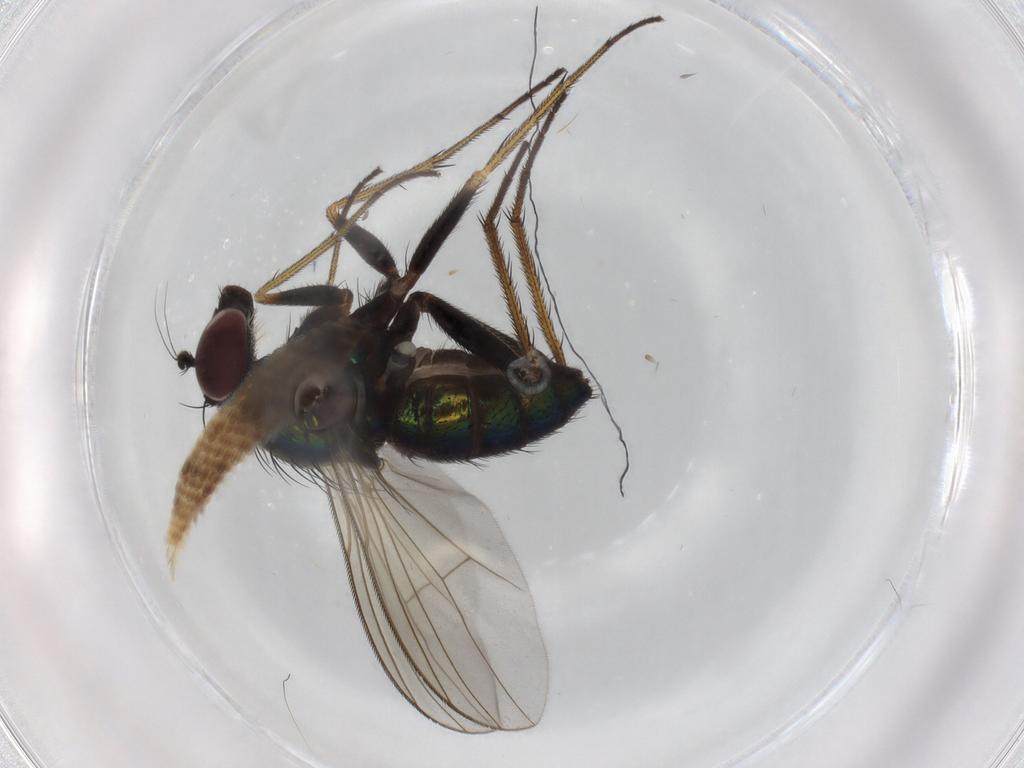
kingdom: Animalia
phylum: Arthropoda
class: Insecta
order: Diptera
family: Dolichopodidae
